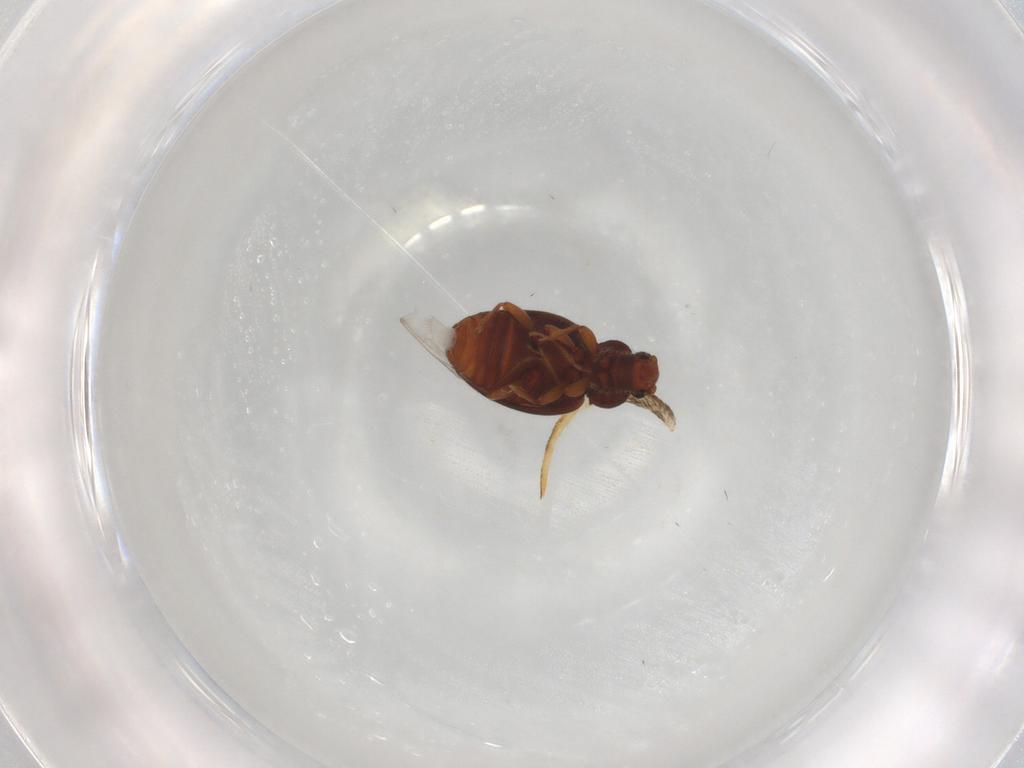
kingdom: Animalia
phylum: Arthropoda
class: Insecta
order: Coleoptera
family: Latridiidae
